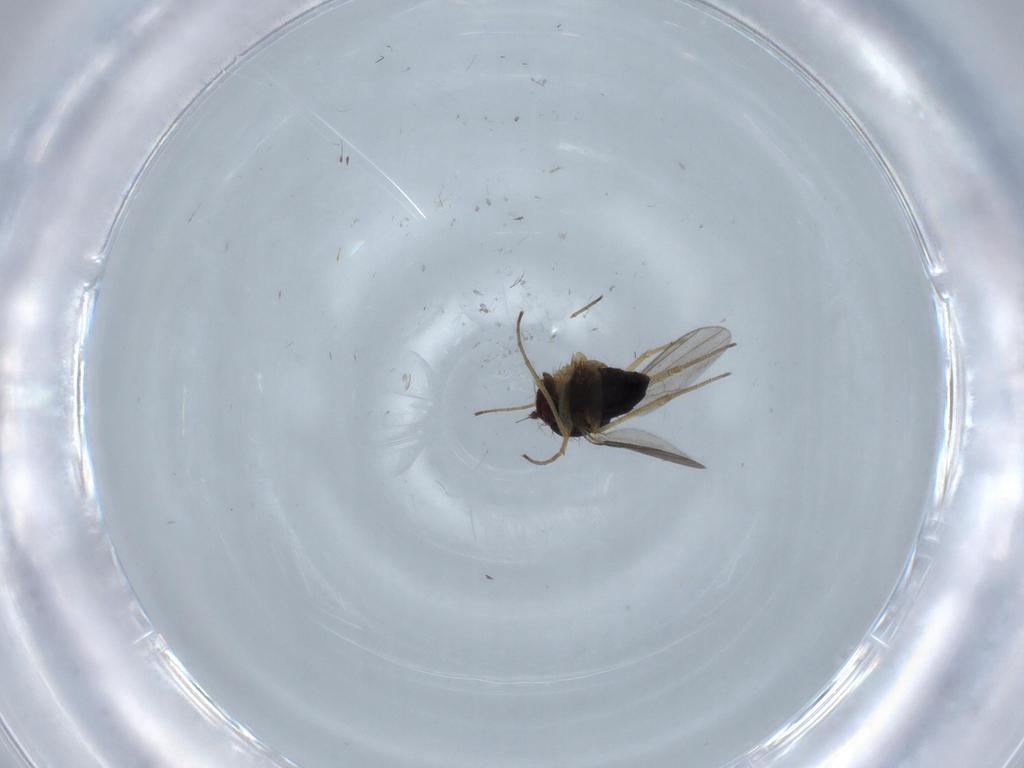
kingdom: Animalia
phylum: Arthropoda
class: Insecta
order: Diptera
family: Dolichopodidae
